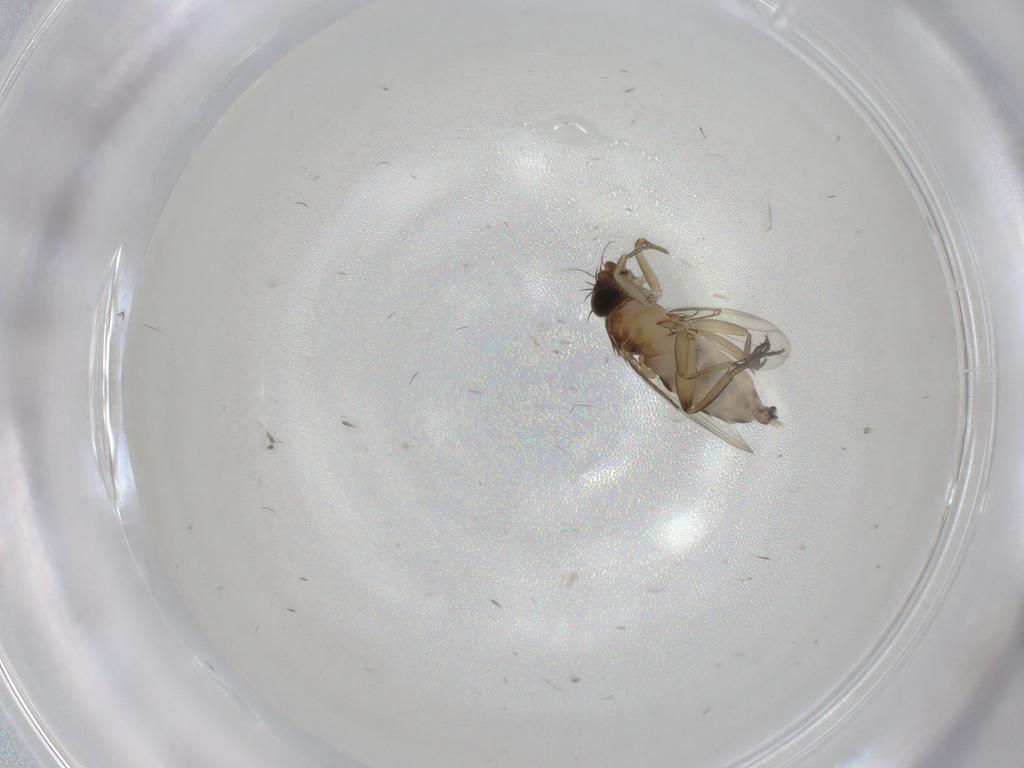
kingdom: Animalia
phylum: Arthropoda
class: Insecta
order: Diptera
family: Phoridae
